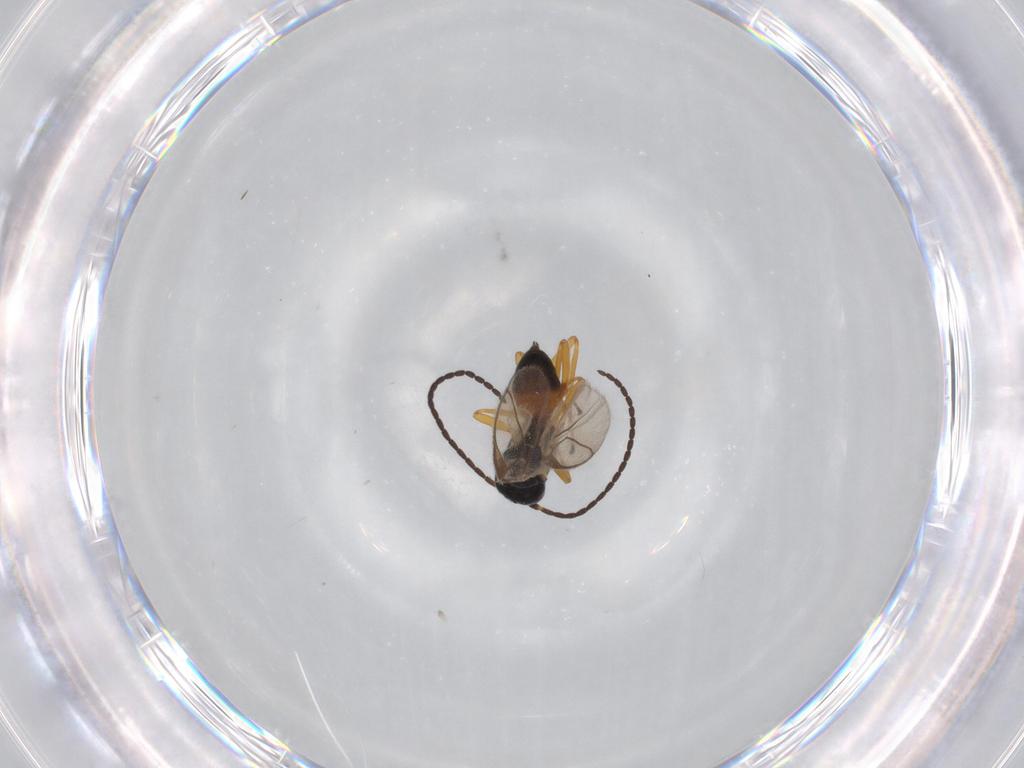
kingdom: Animalia
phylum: Arthropoda
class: Insecta
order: Hymenoptera
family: Braconidae
